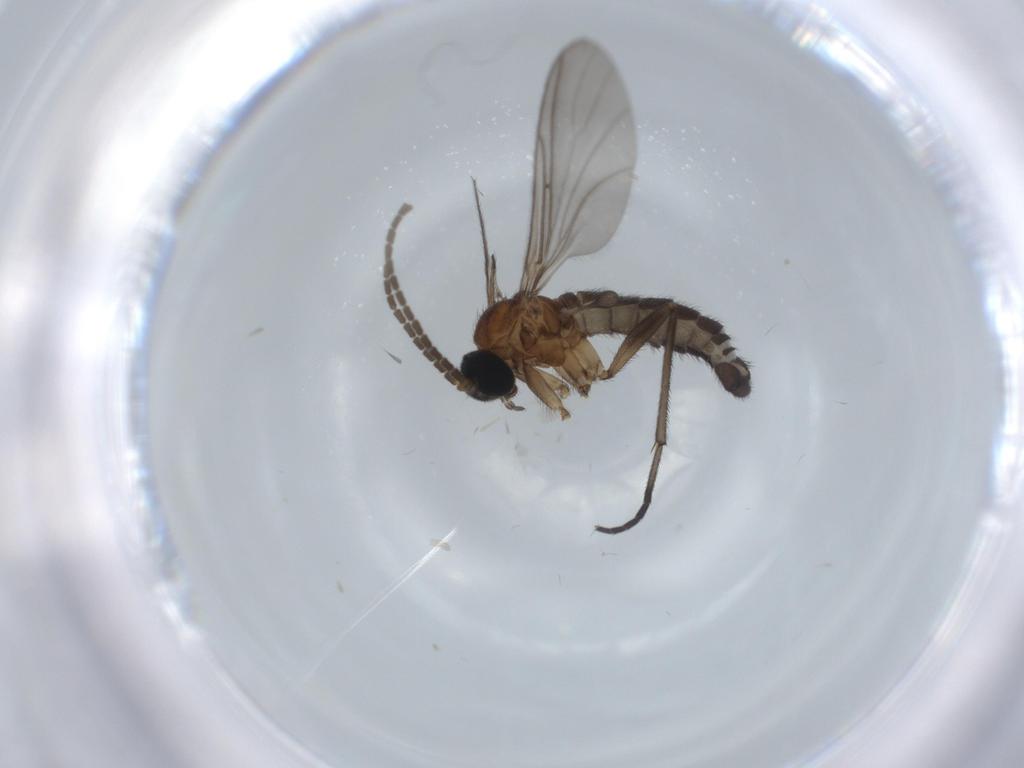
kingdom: Animalia
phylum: Arthropoda
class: Insecta
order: Diptera
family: Sciaridae
